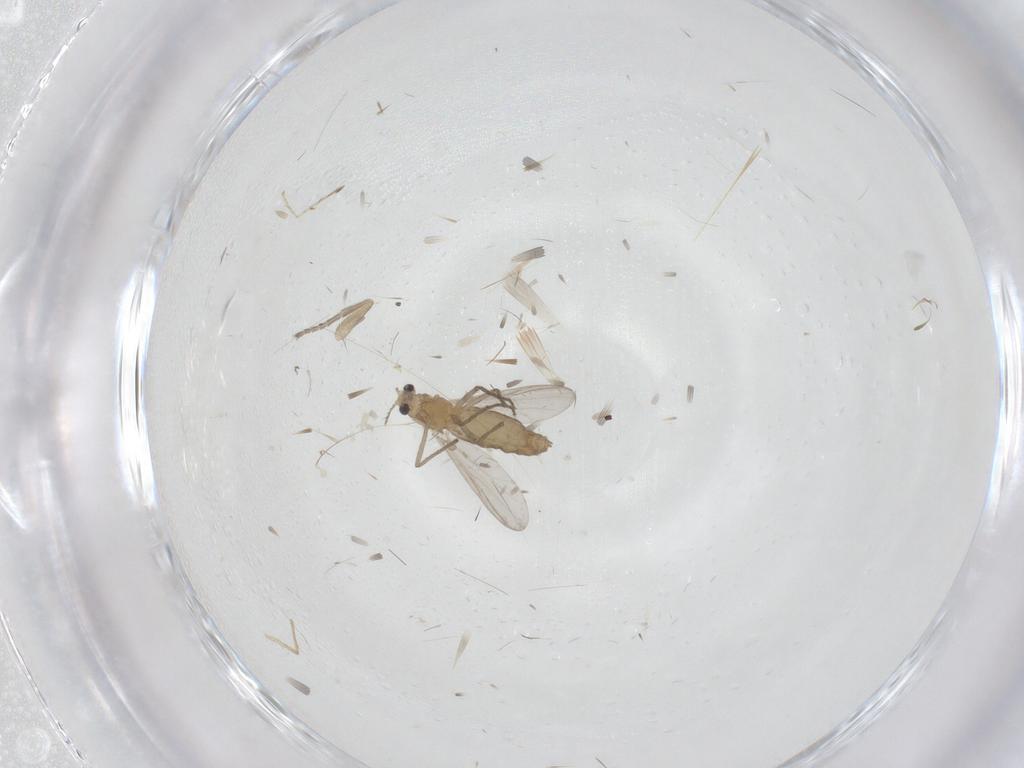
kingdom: Animalia
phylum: Arthropoda
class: Insecta
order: Diptera
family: Chironomidae
